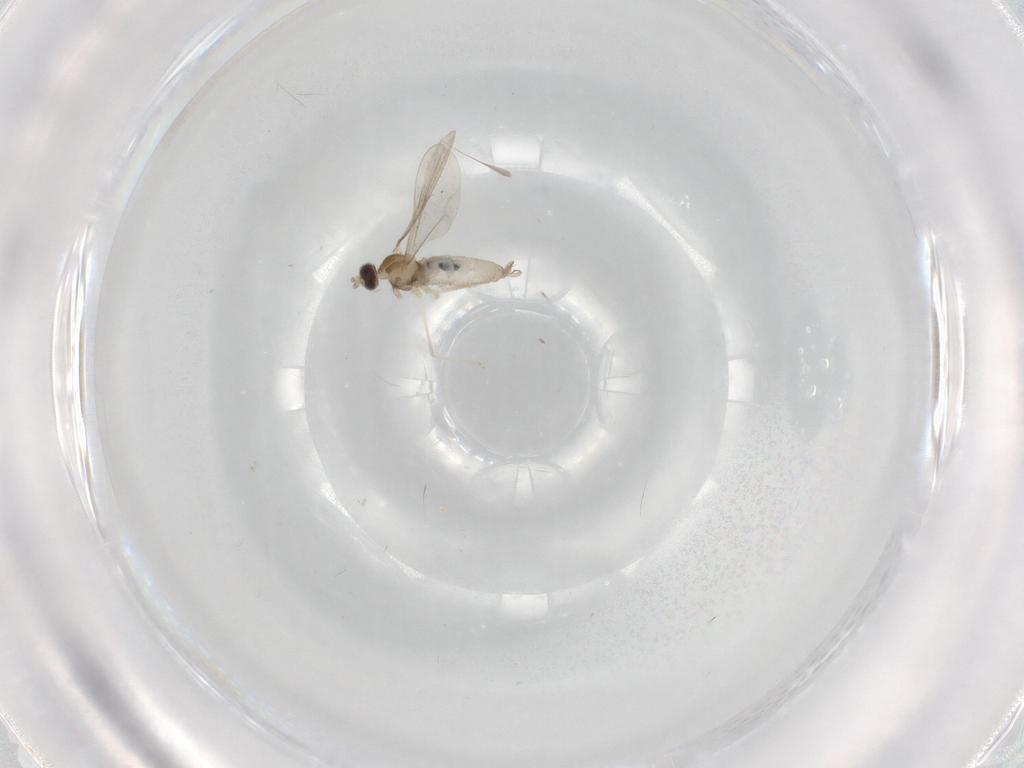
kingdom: Animalia
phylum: Arthropoda
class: Insecta
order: Diptera
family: Cecidomyiidae
